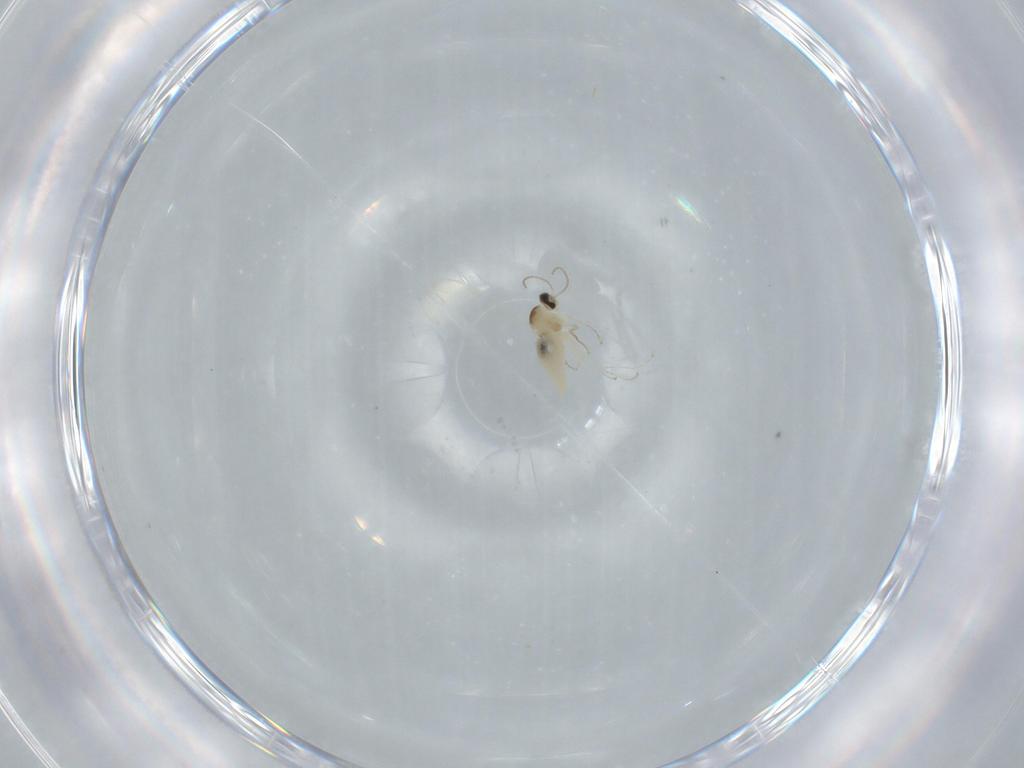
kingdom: Animalia
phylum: Arthropoda
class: Insecta
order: Diptera
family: Cecidomyiidae
